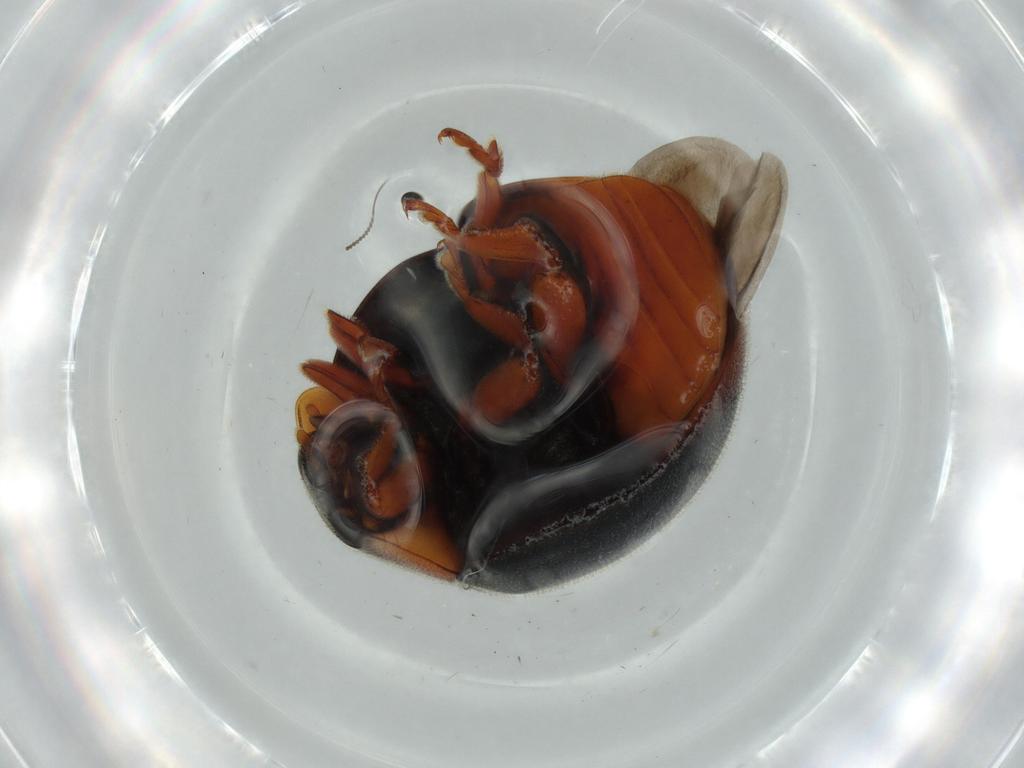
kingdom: Animalia
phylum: Arthropoda
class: Insecta
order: Coleoptera
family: Coccinellidae
